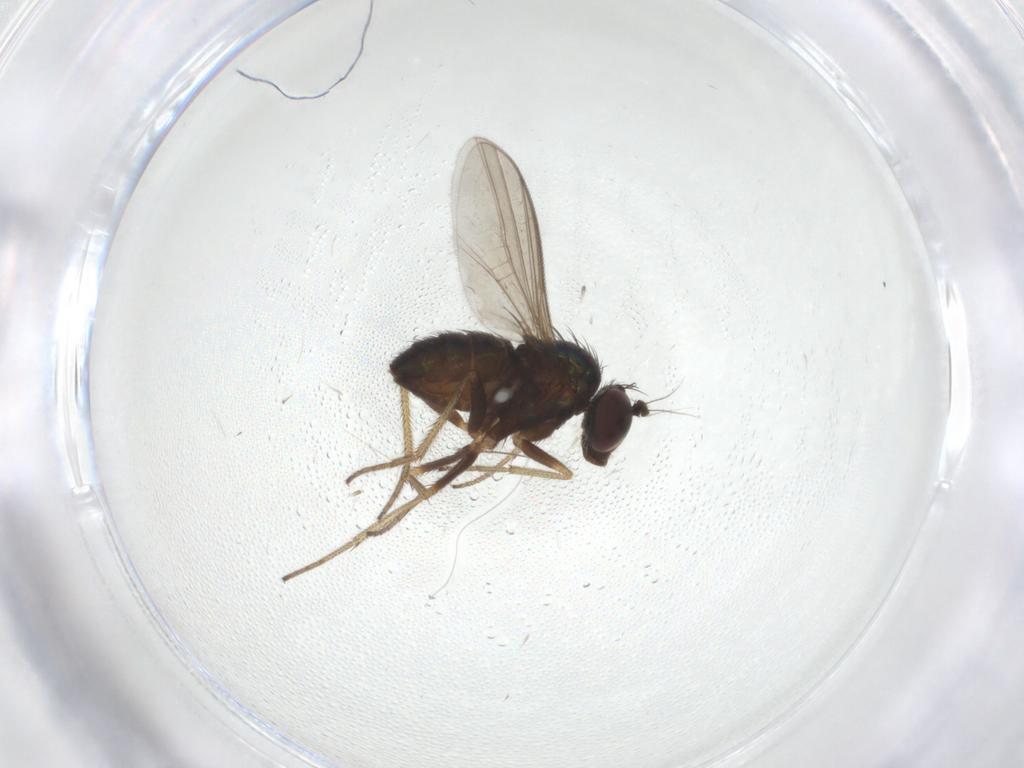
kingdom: Animalia
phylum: Arthropoda
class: Insecta
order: Diptera
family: Dolichopodidae
